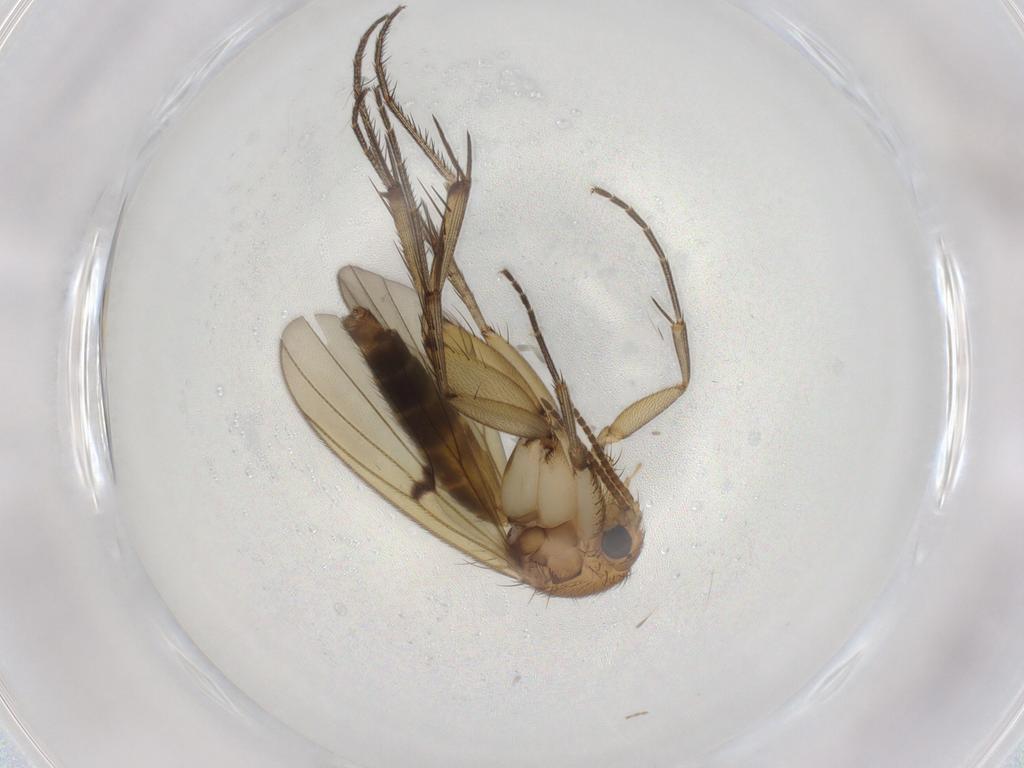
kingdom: Animalia
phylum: Arthropoda
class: Insecta
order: Diptera
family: Mycetophilidae
